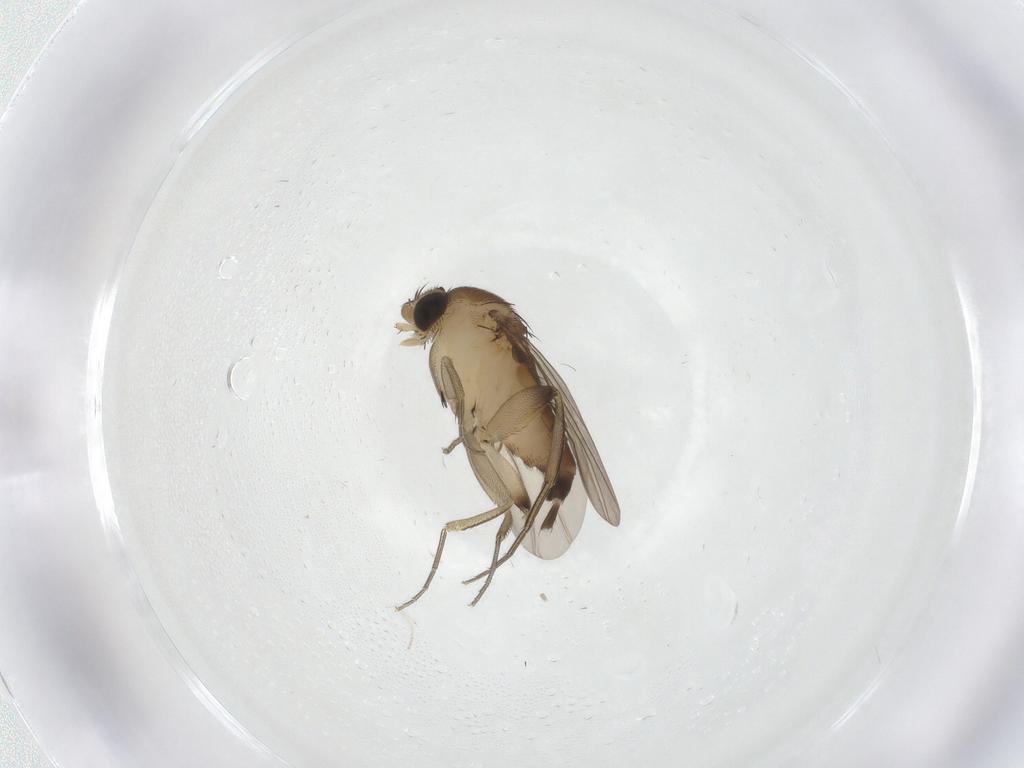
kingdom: Animalia
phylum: Arthropoda
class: Insecta
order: Diptera
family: Phoridae
